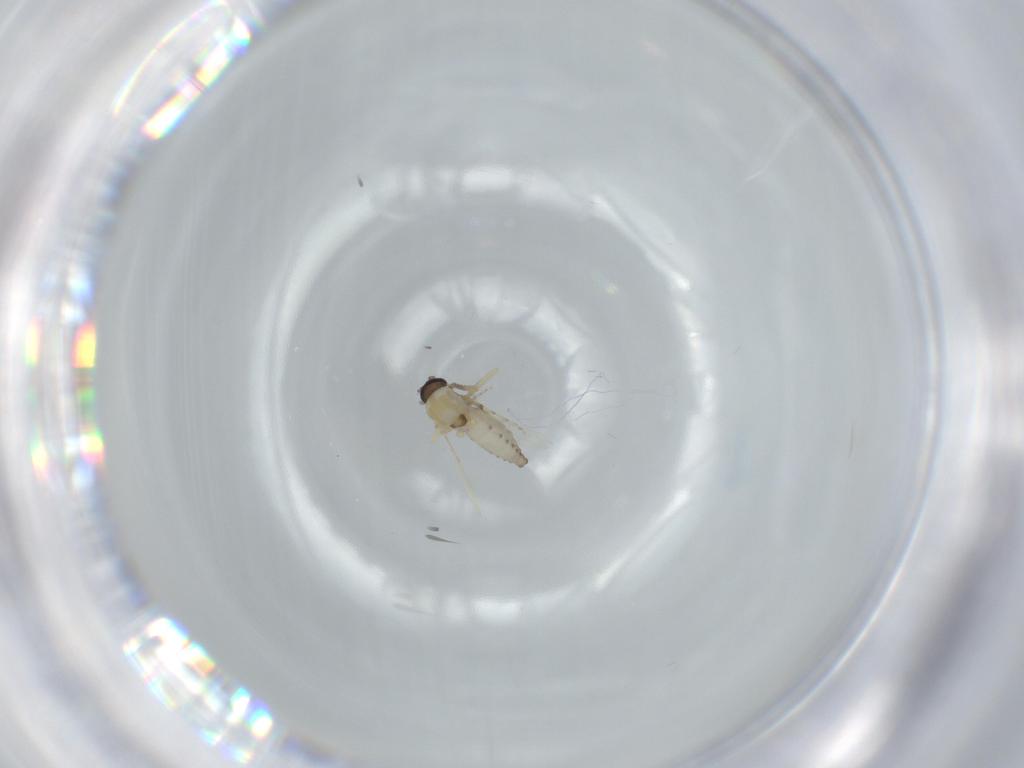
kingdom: Animalia
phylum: Arthropoda
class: Insecta
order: Diptera
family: Ceratopogonidae
